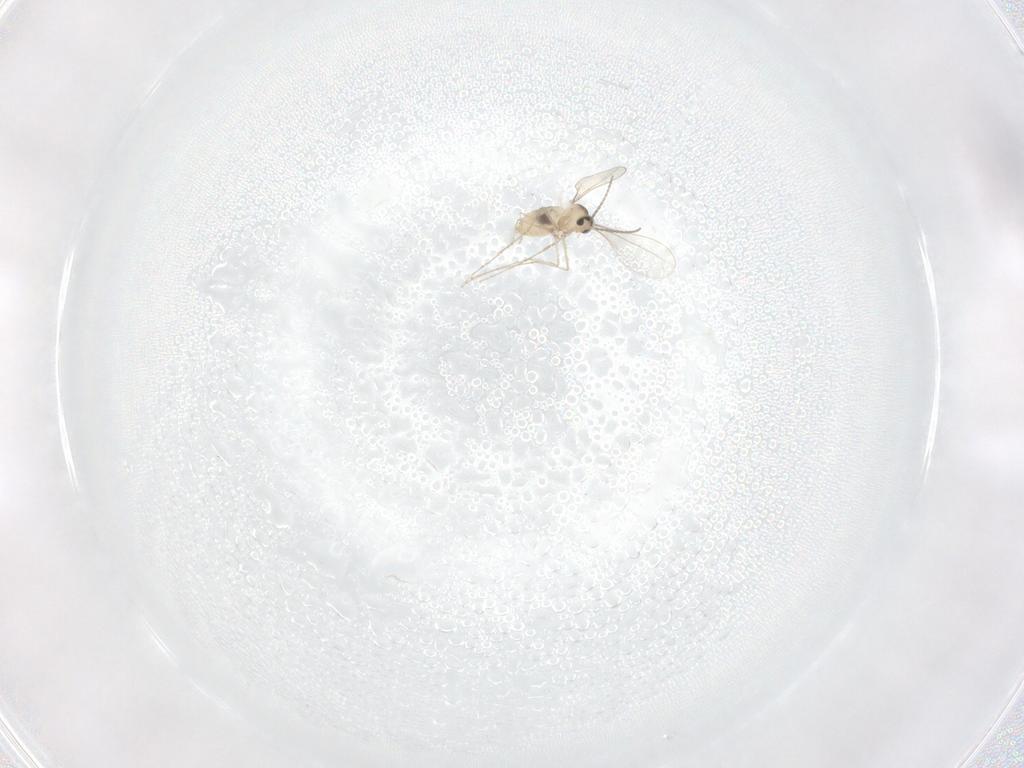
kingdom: Animalia
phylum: Arthropoda
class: Insecta
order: Diptera
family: Cecidomyiidae
